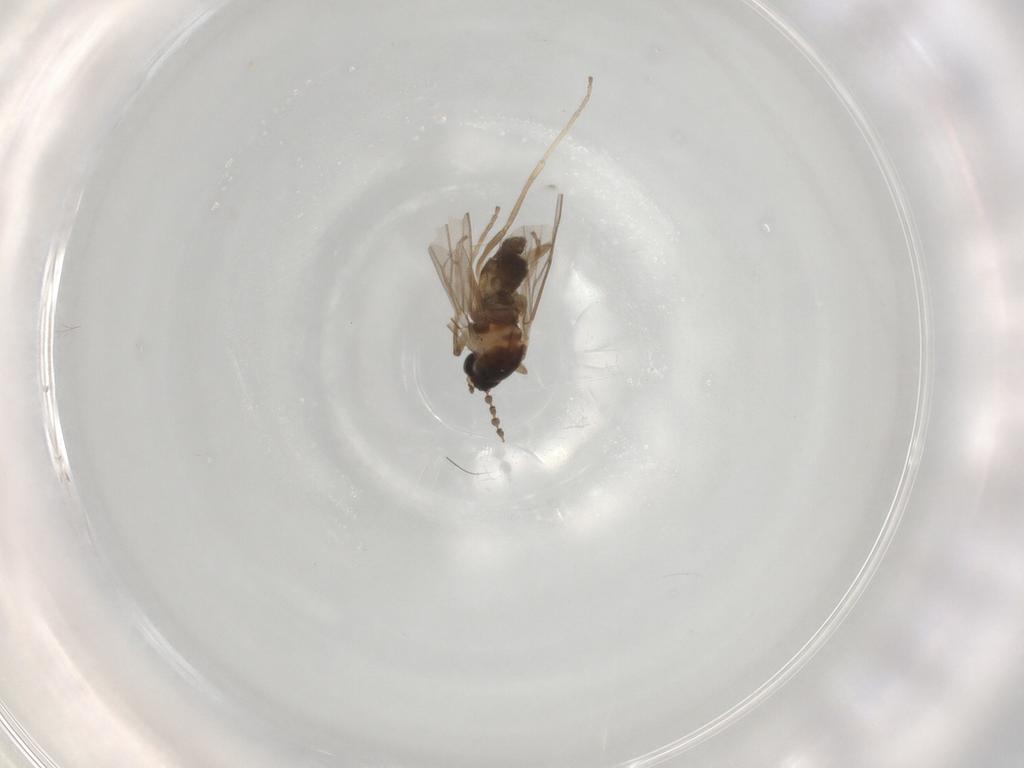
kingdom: Animalia
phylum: Arthropoda
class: Insecta
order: Diptera
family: Cecidomyiidae
